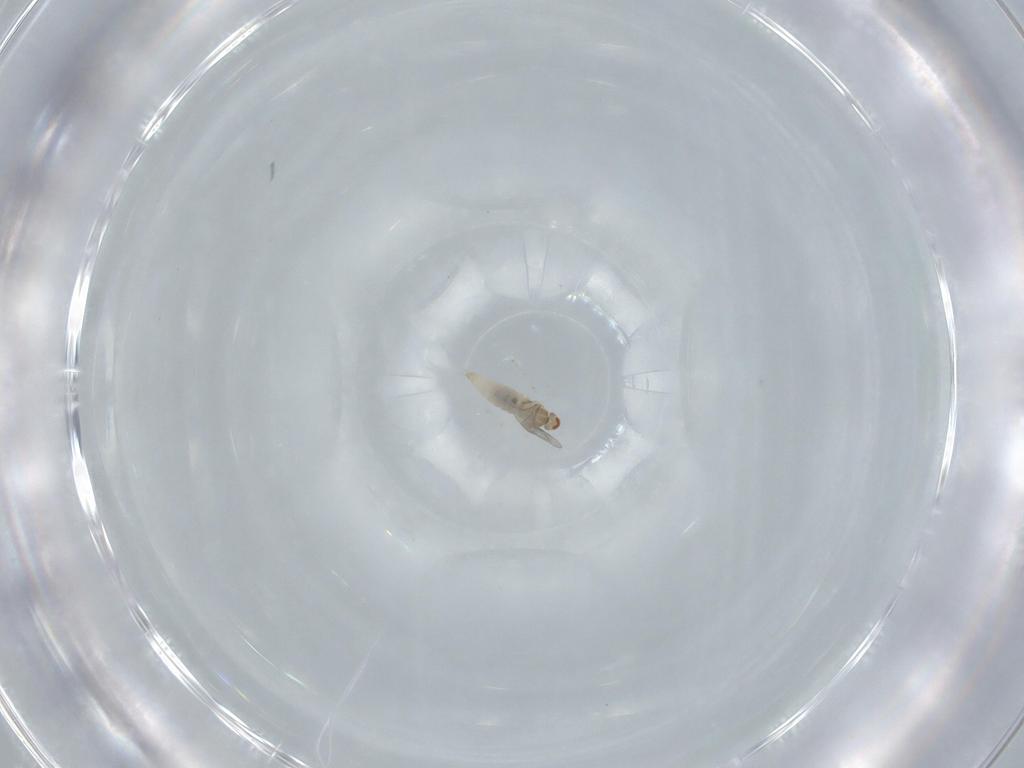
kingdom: Animalia
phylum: Arthropoda
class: Insecta
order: Diptera
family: Cecidomyiidae
